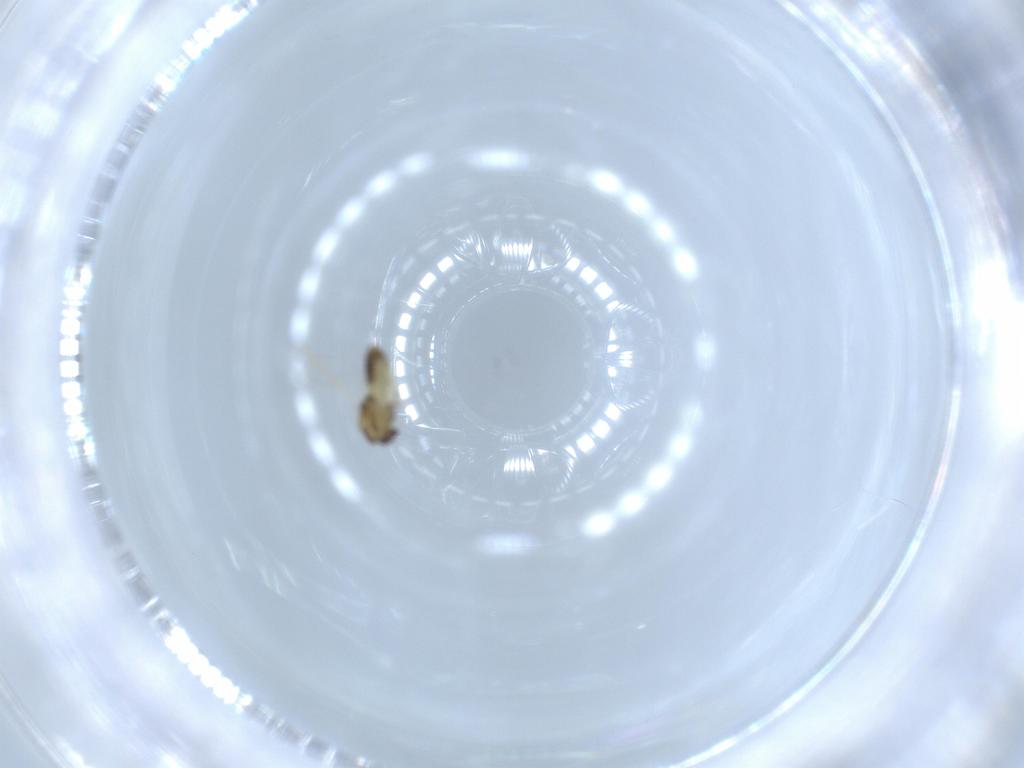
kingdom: Animalia
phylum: Arthropoda
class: Insecta
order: Diptera
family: Chironomidae
